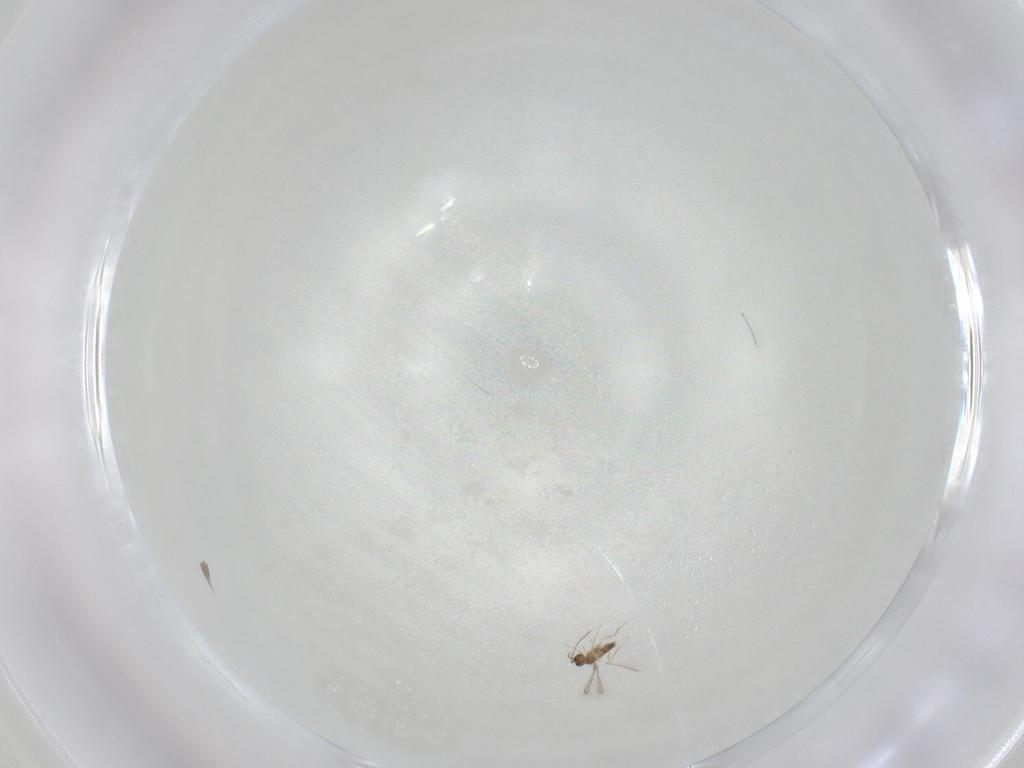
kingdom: Animalia
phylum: Arthropoda
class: Insecta
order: Hymenoptera
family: Mymaridae
